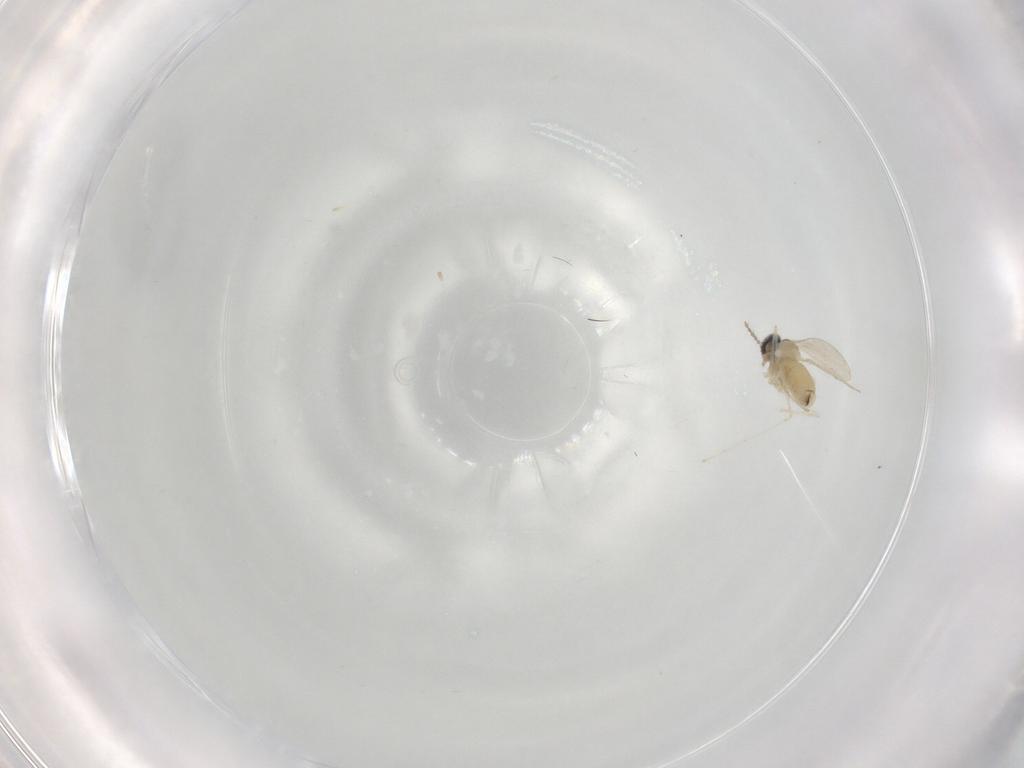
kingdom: Animalia
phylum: Arthropoda
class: Insecta
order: Diptera
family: Cecidomyiidae
